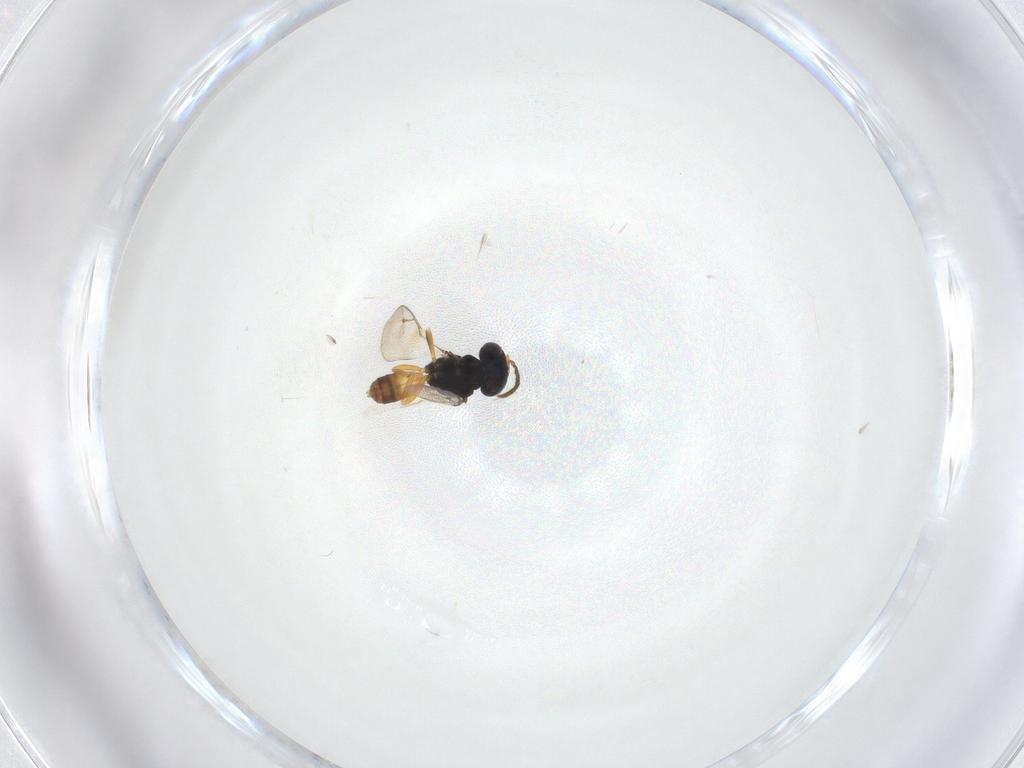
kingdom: Animalia
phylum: Arthropoda
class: Insecta
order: Hymenoptera
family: Pteromalidae
